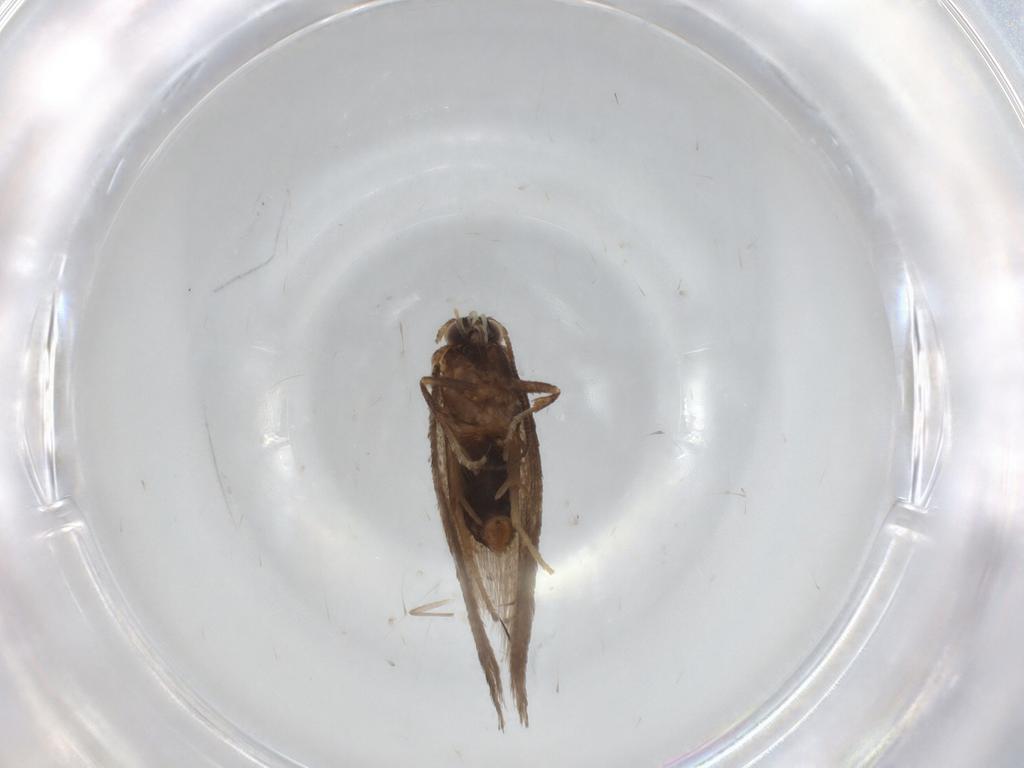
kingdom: Animalia
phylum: Arthropoda
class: Insecta
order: Lepidoptera
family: Nepticulidae
